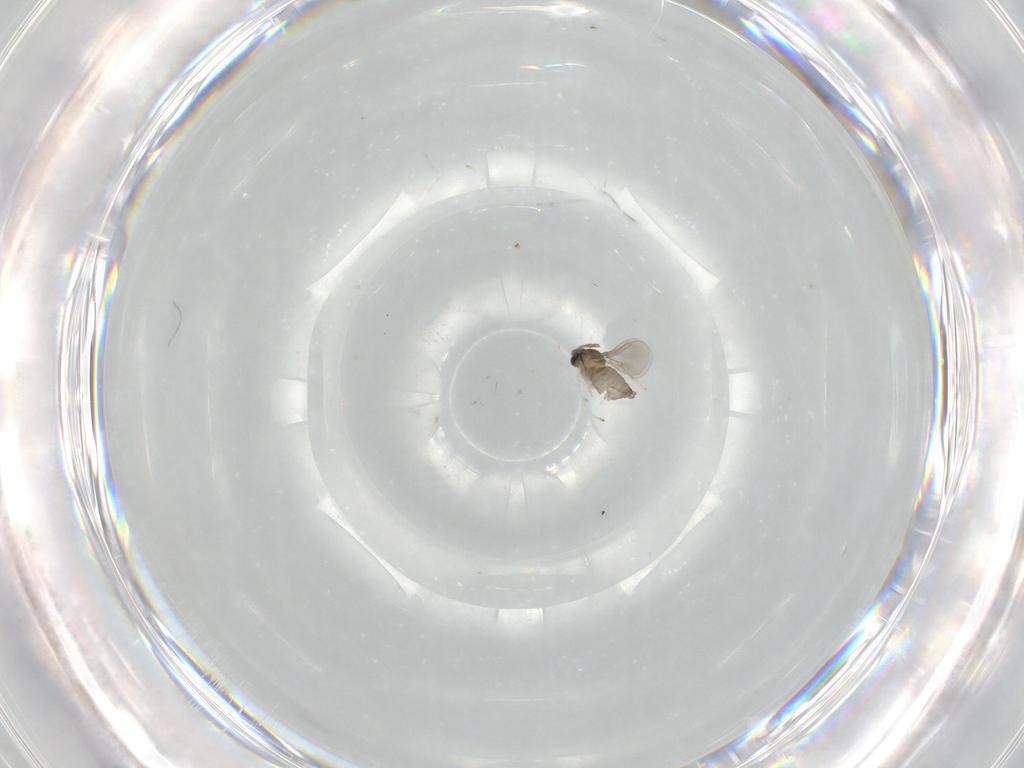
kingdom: Animalia
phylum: Arthropoda
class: Insecta
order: Diptera
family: Cecidomyiidae
